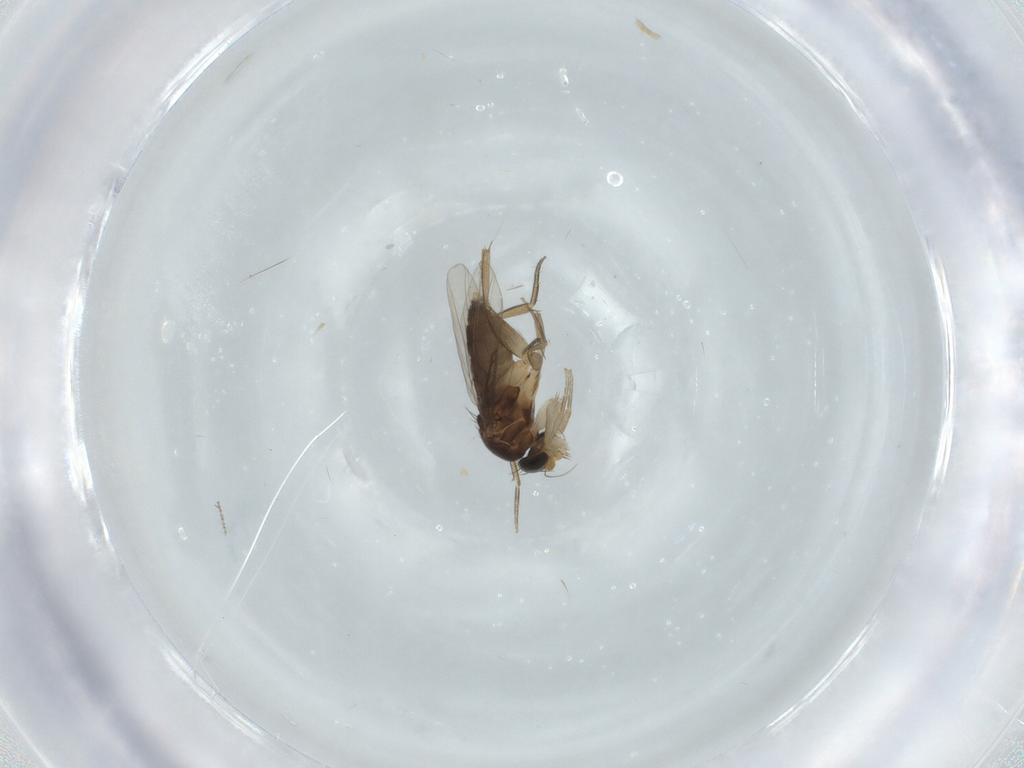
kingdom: Animalia
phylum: Arthropoda
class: Insecta
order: Diptera
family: Phoridae
